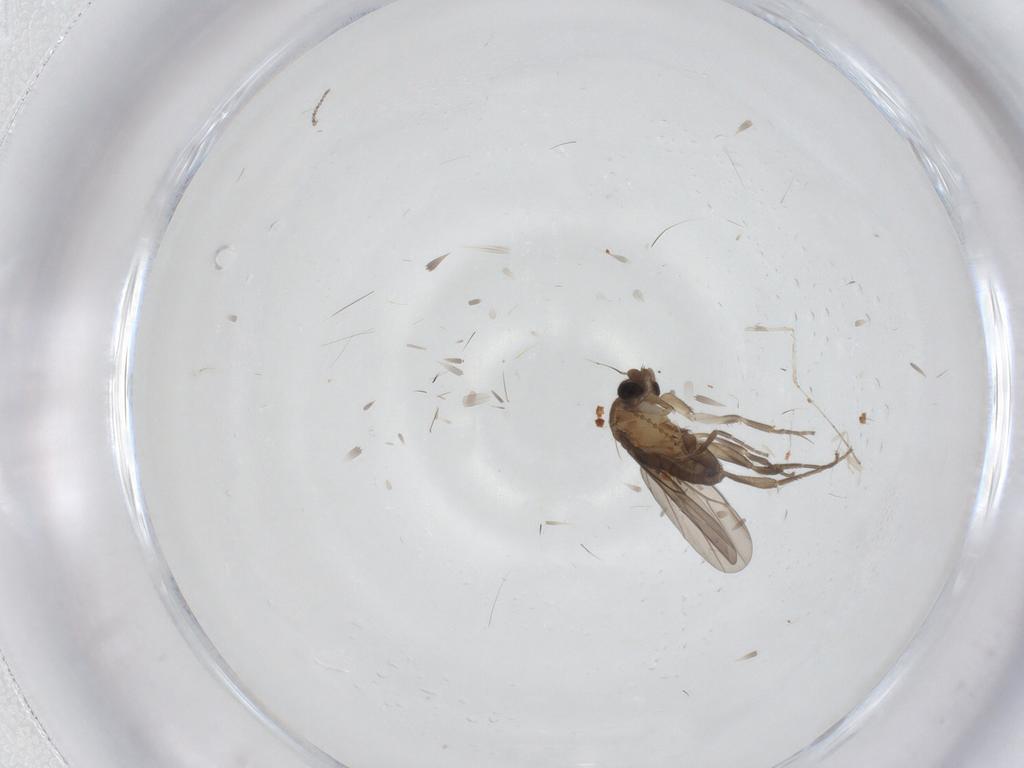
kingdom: Animalia
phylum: Arthropoda
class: Insecta
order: Diptera
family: Cecidomyiidae
